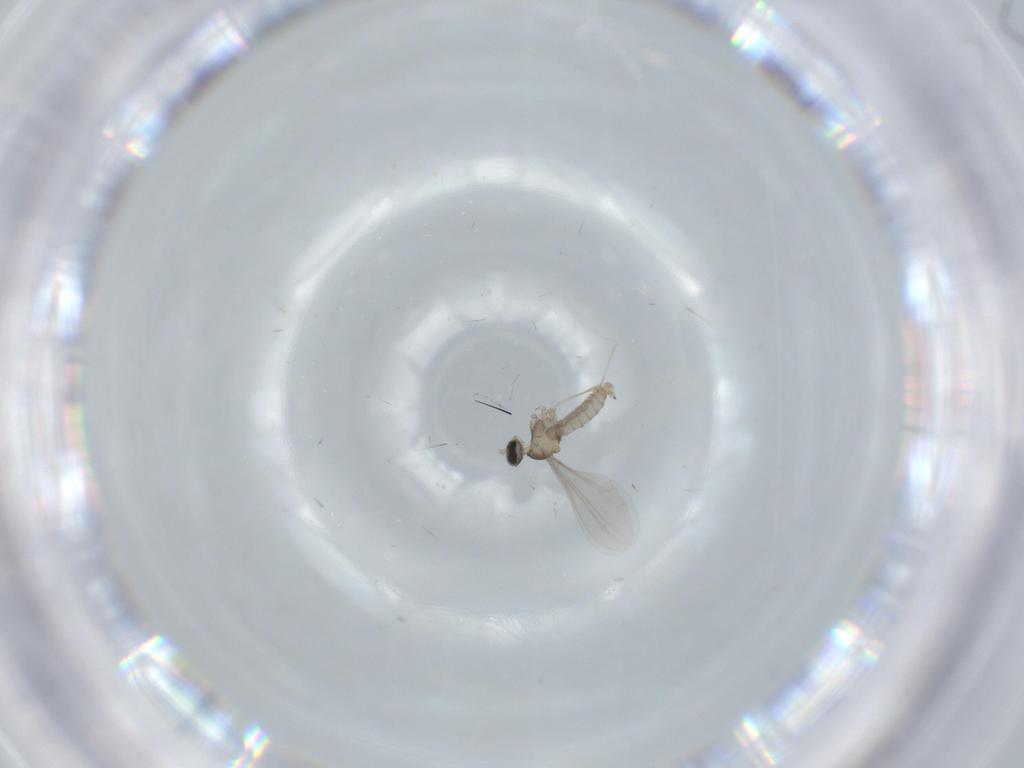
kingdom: Animalia
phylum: Arthropoda
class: Insecta
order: Diptera
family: Cecidomyiidae
